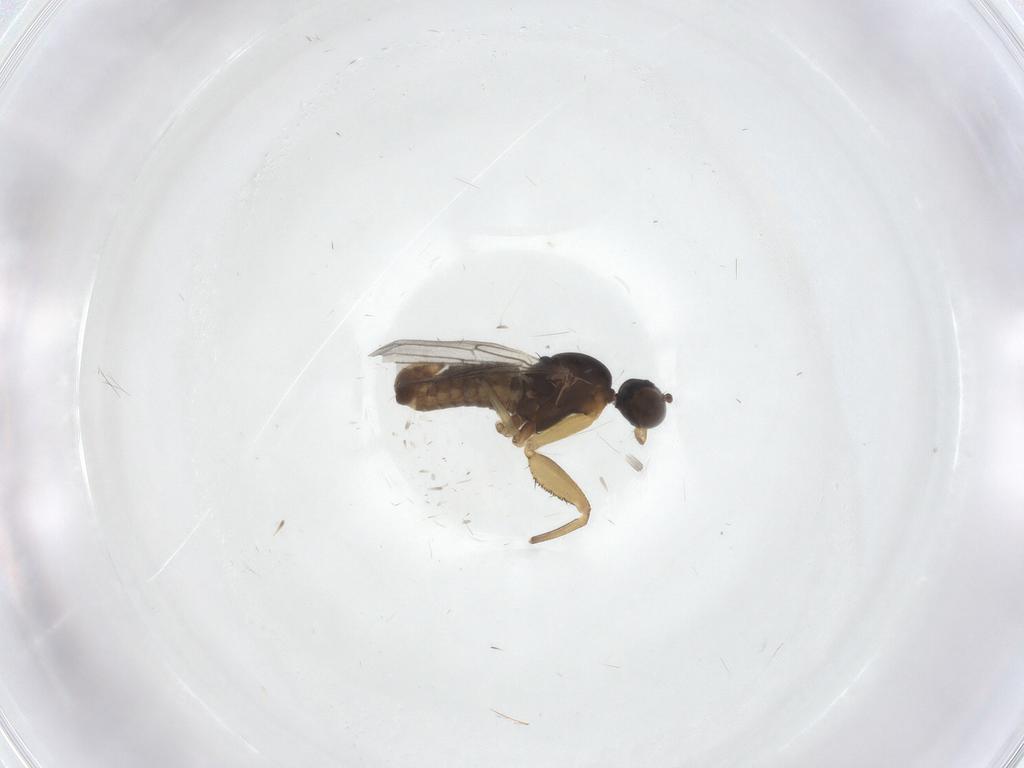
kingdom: Animalia
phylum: Arthropoda
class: Insecta
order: Diptera
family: Empididae
